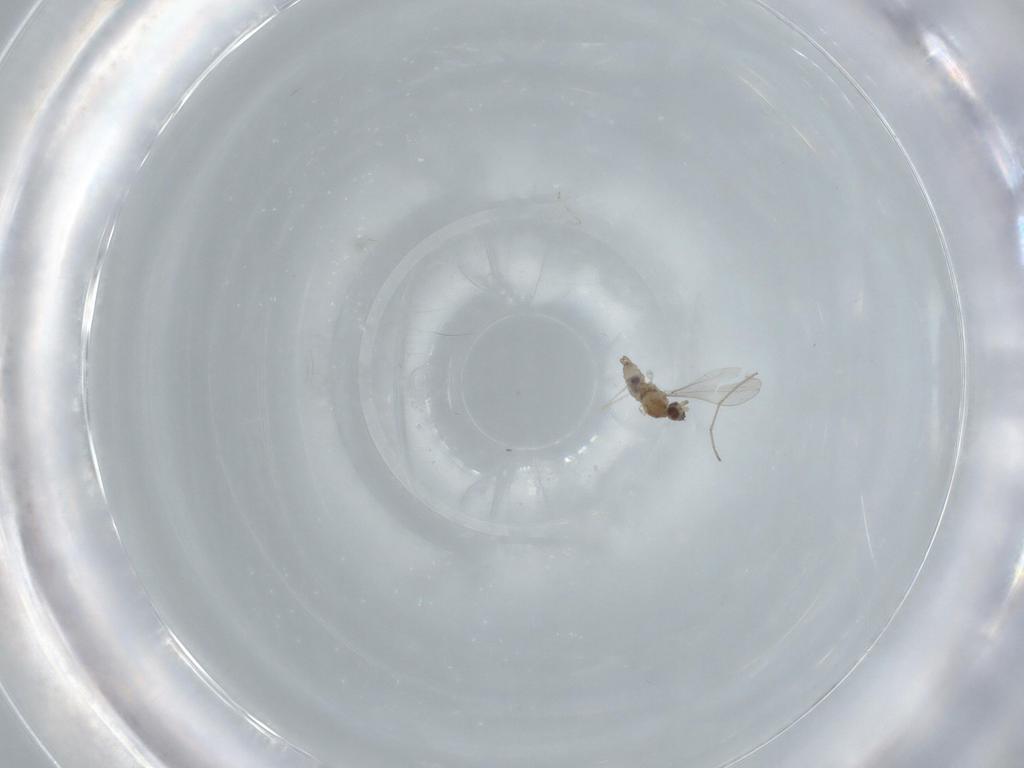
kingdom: Animalia
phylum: Arthropoda
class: Insecta
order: Diptera
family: Cecidomyiidae
